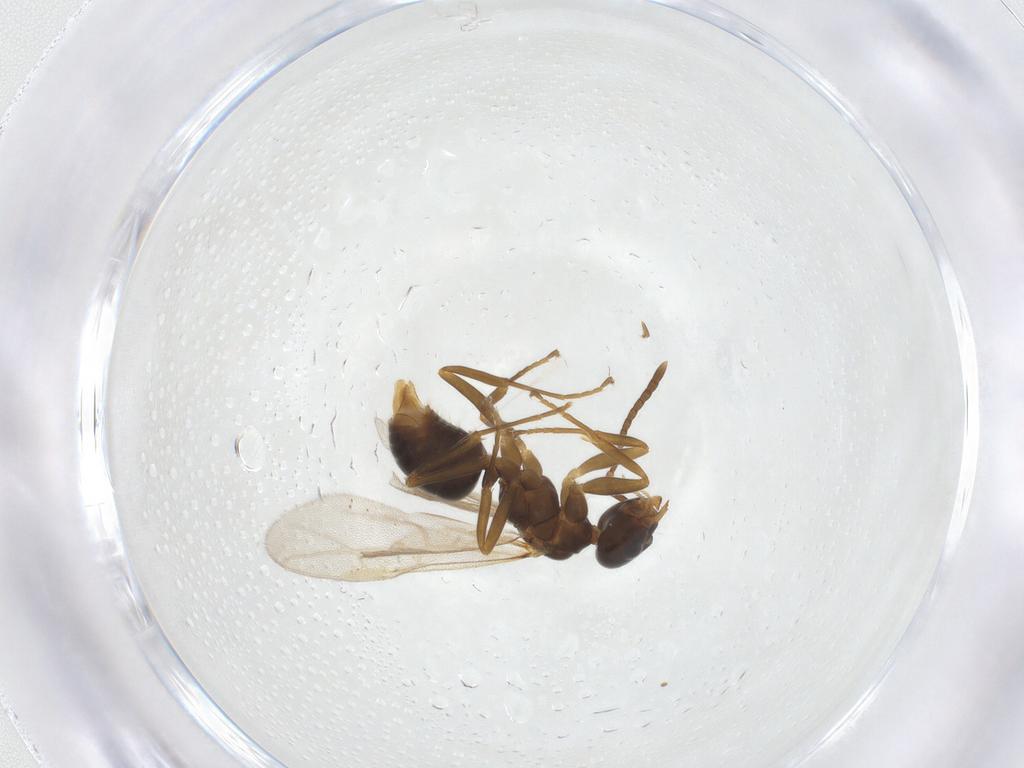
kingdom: Animalia
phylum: Arthropoda
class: Insecta
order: Hymenoptera
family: Formicidae
